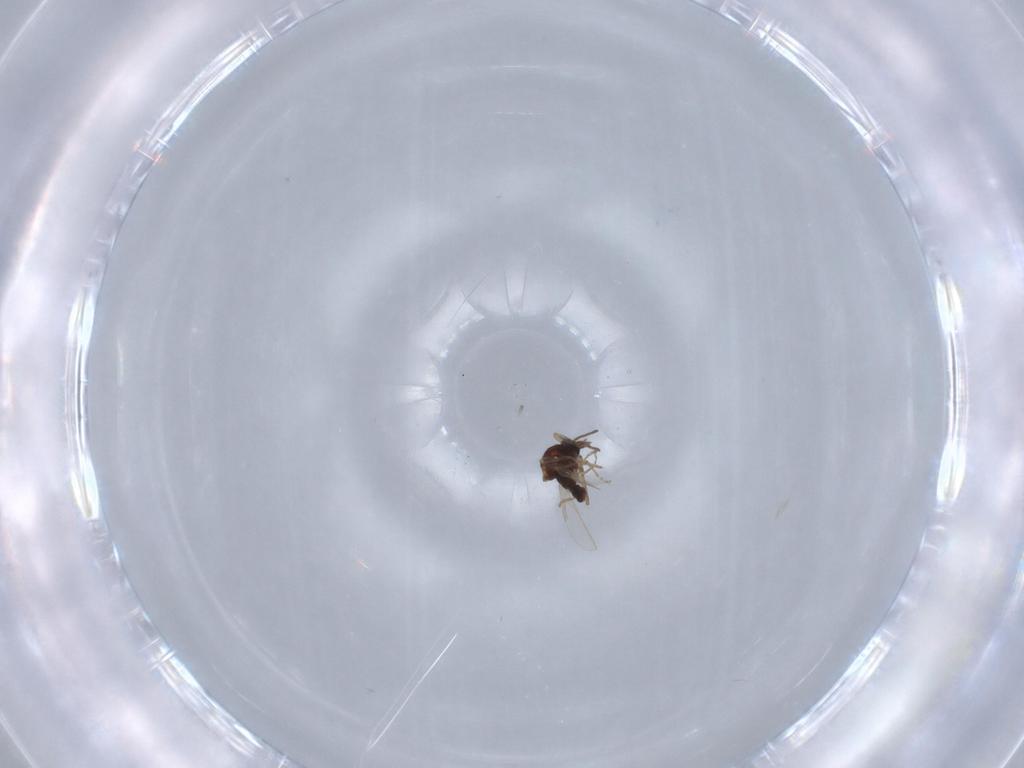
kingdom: Animalia
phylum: Arthropoda
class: Insecta
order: Diptera
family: Ceratopogonidae
